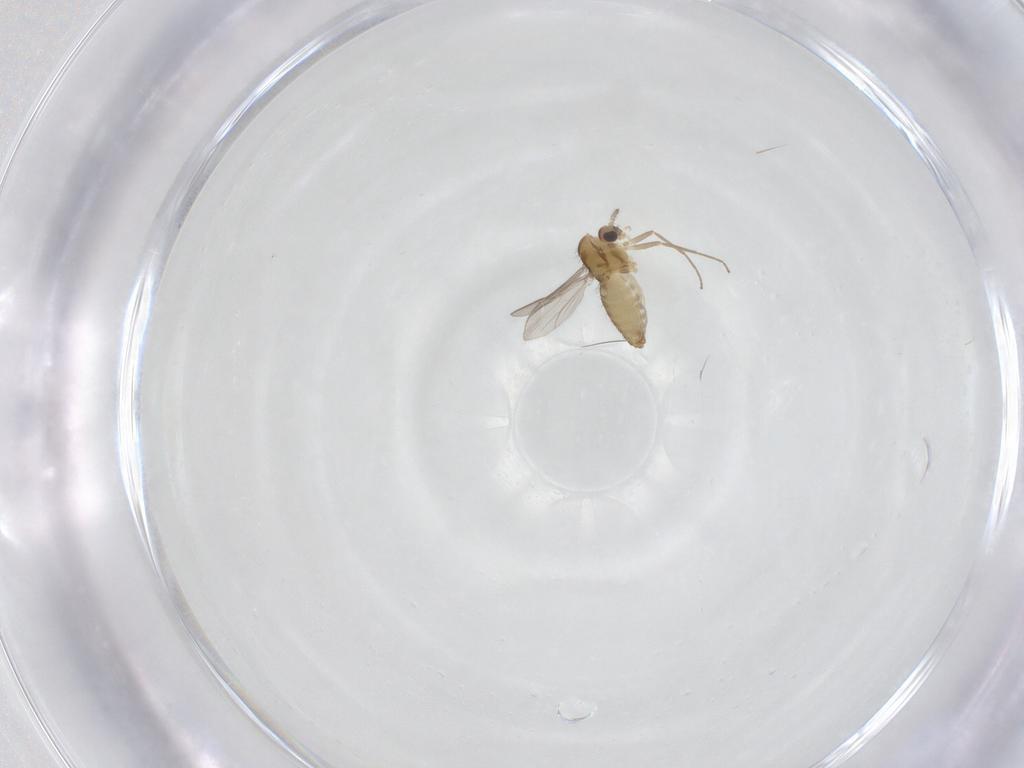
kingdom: Animalia
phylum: Arthropoda
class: Insecta
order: Diptera
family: Chironomidae
